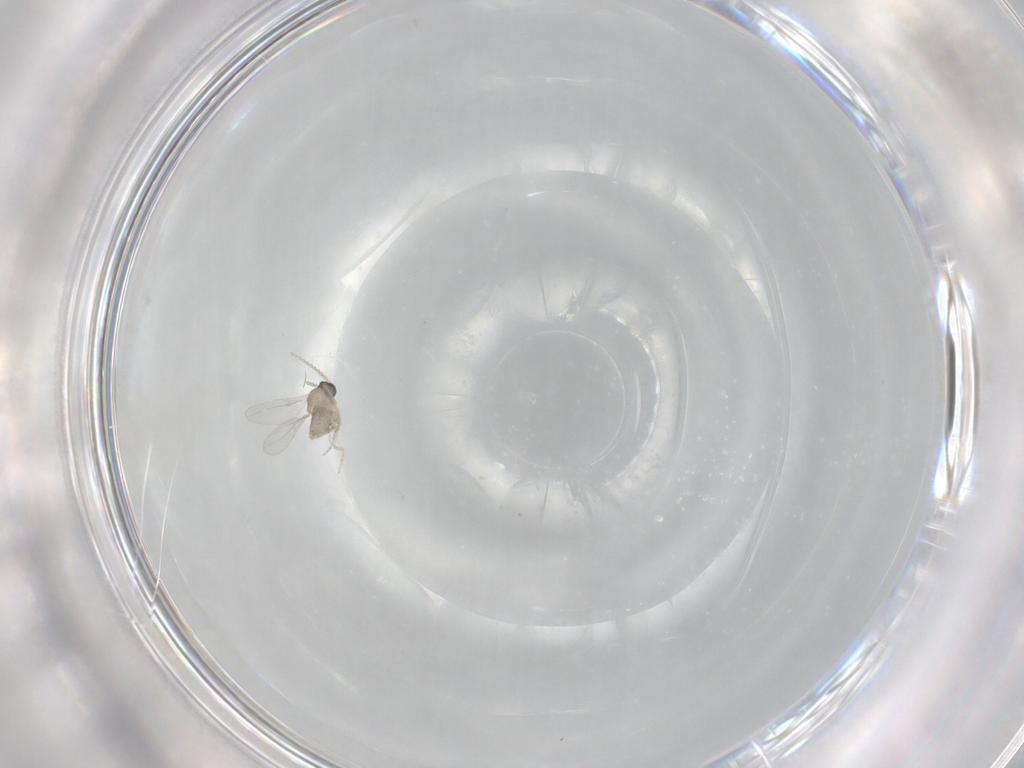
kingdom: Animalia
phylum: Arthropoda
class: Insecta
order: Diptera
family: Cecidomyiidae
